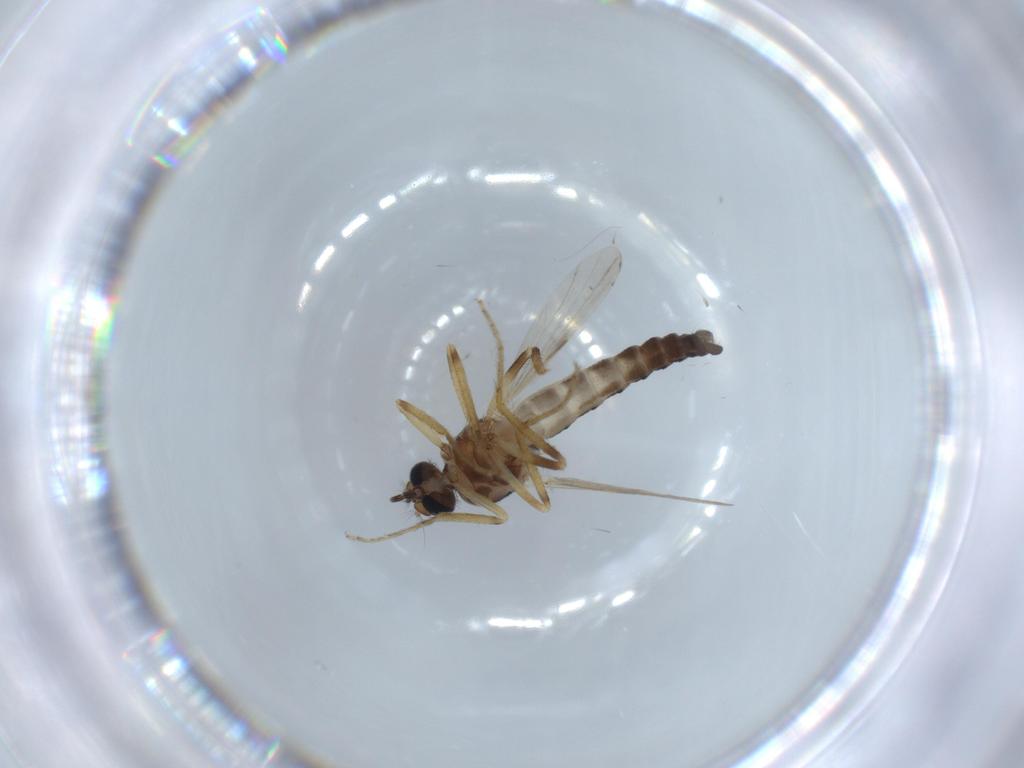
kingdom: Animalia
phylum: Arthropoda
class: Insecta
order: Diptera
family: Ceratopogonidae
